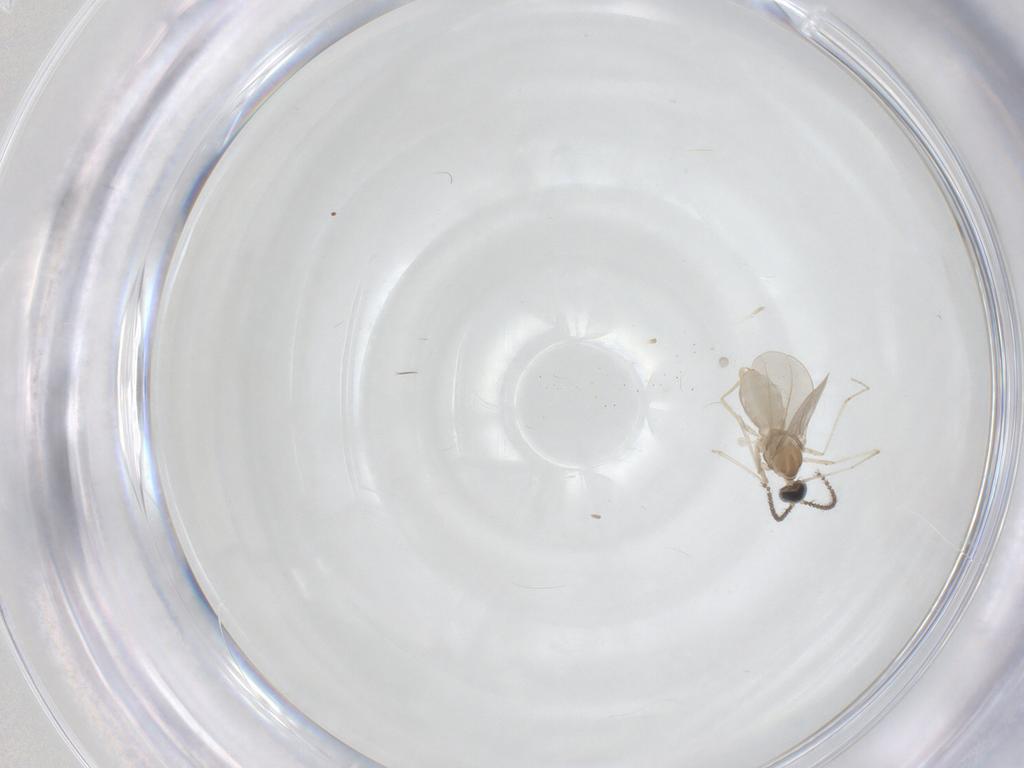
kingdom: Animalia
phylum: Arthropoda
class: Insecta
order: Diptera
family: Cecidomyiidae
